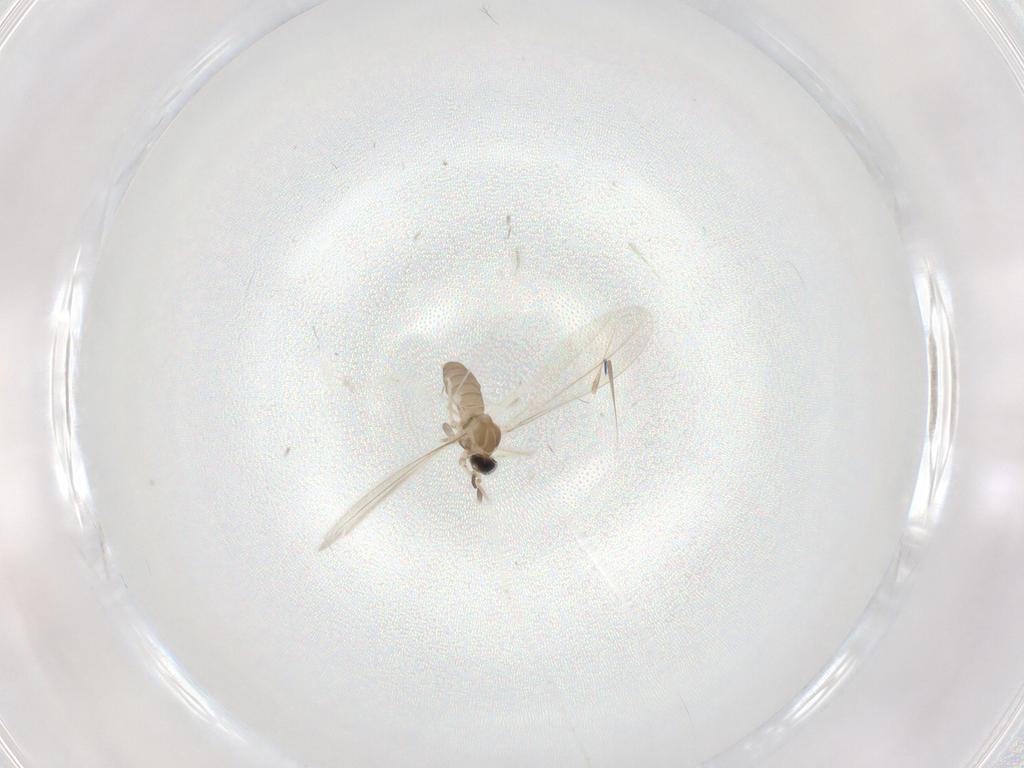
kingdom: Animalia
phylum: Arthropoda
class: Insecta
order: Diptera
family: Cecidomyiidae
